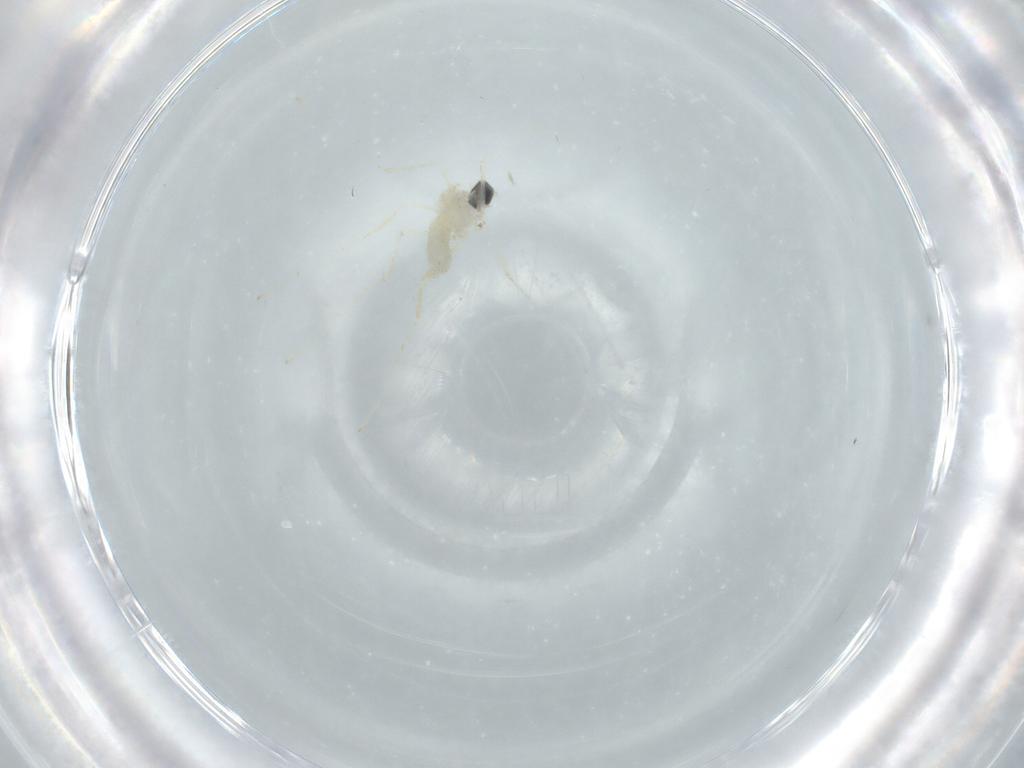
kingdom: Animalia
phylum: Arthropoda
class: Insecta
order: Diptera
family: Cecidomyiidae
